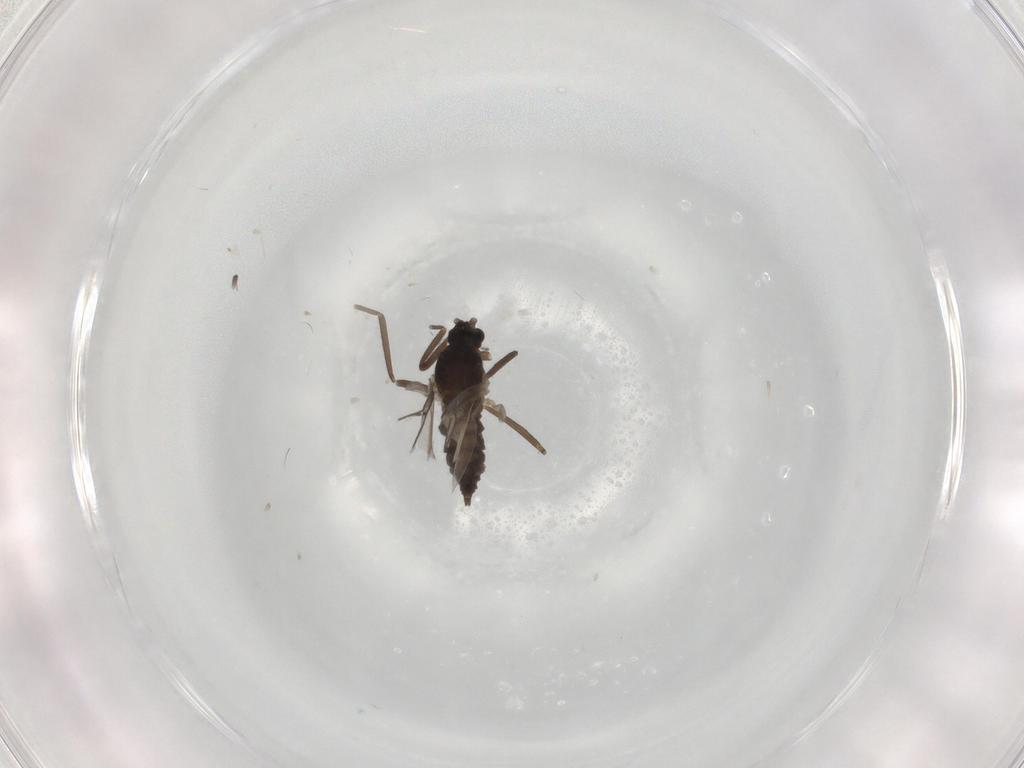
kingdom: Animalia
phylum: Arthropoda
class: Insecta
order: Diptera
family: Cecidomyiidae
